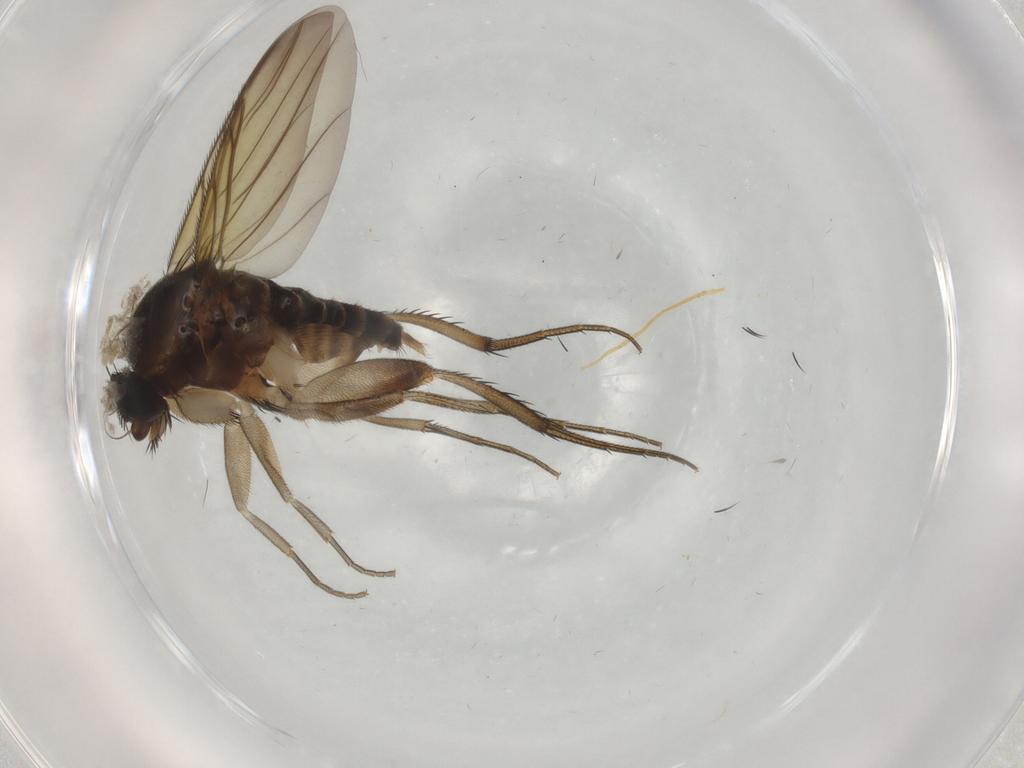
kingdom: Animalia
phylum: Arthropoda
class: Insecta
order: Diptera
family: Phoridae
